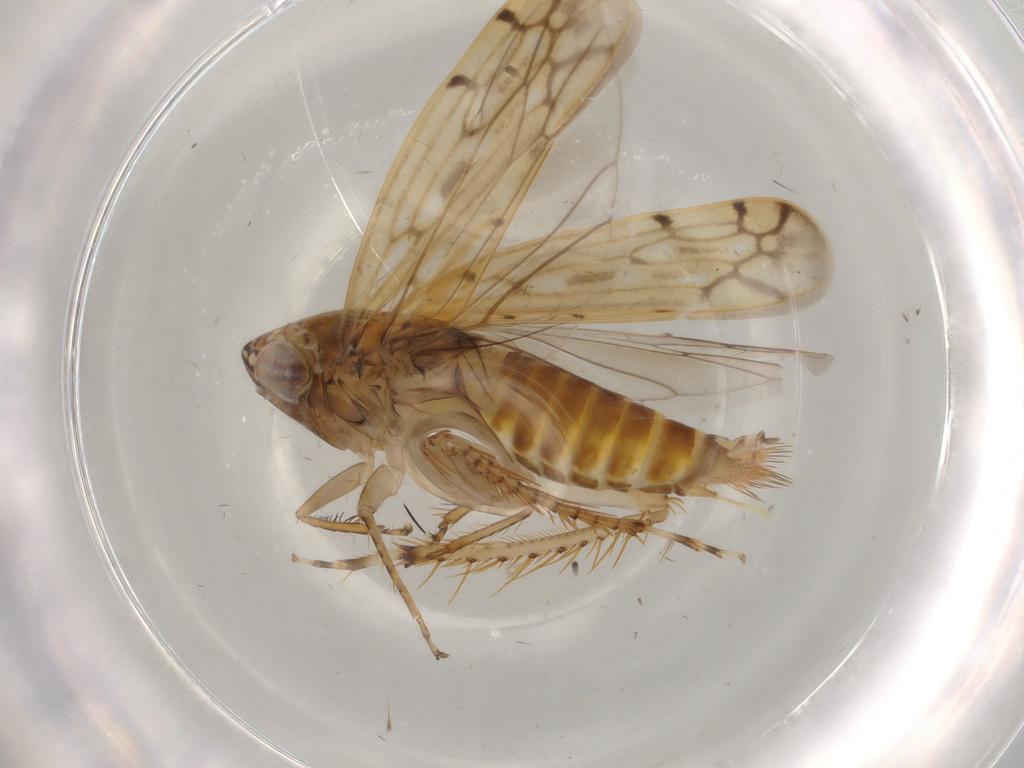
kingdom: Animalia
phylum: Arthropoda
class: Insecta
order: Hemiptera
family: Cicadellidae
